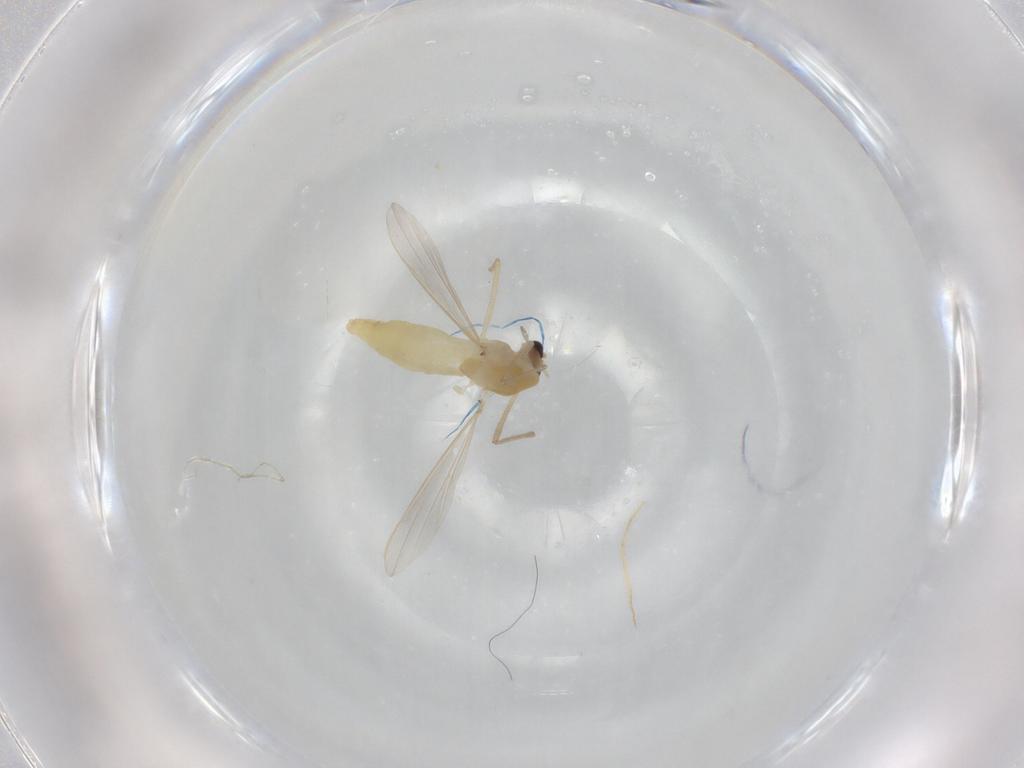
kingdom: Animalia
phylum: Arthropoda
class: Insecta
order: Diptera
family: Chironomidae
